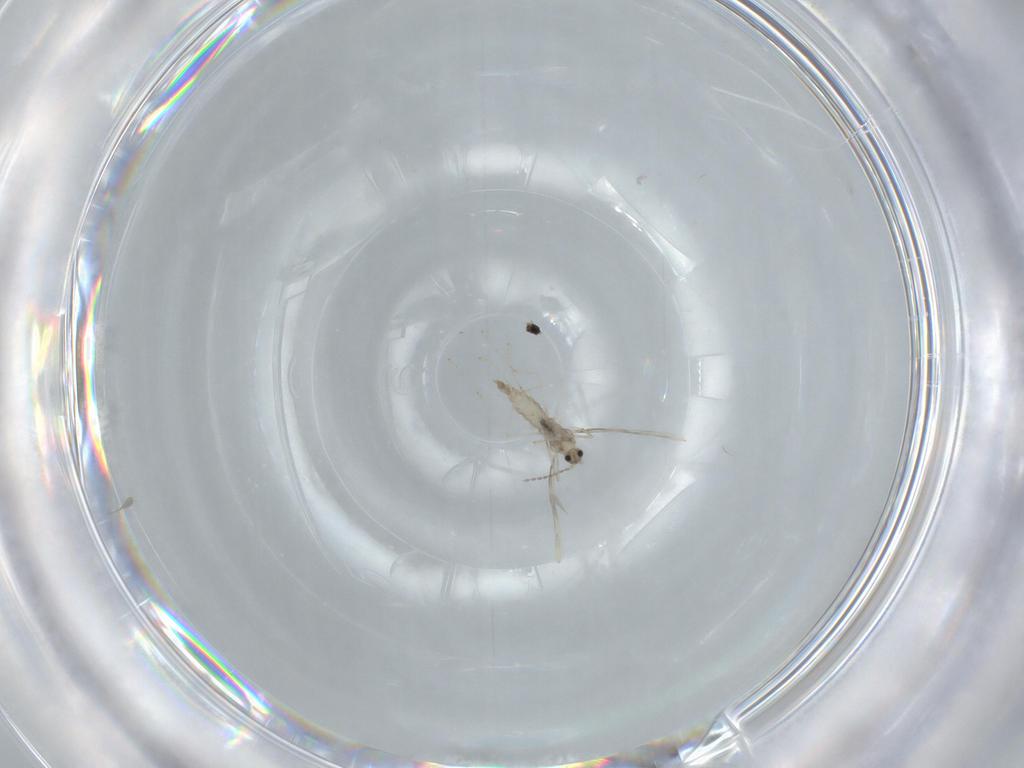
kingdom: Animalia
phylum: Arthropoda
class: Insecta
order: Diptera
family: Cecidomyiidae
